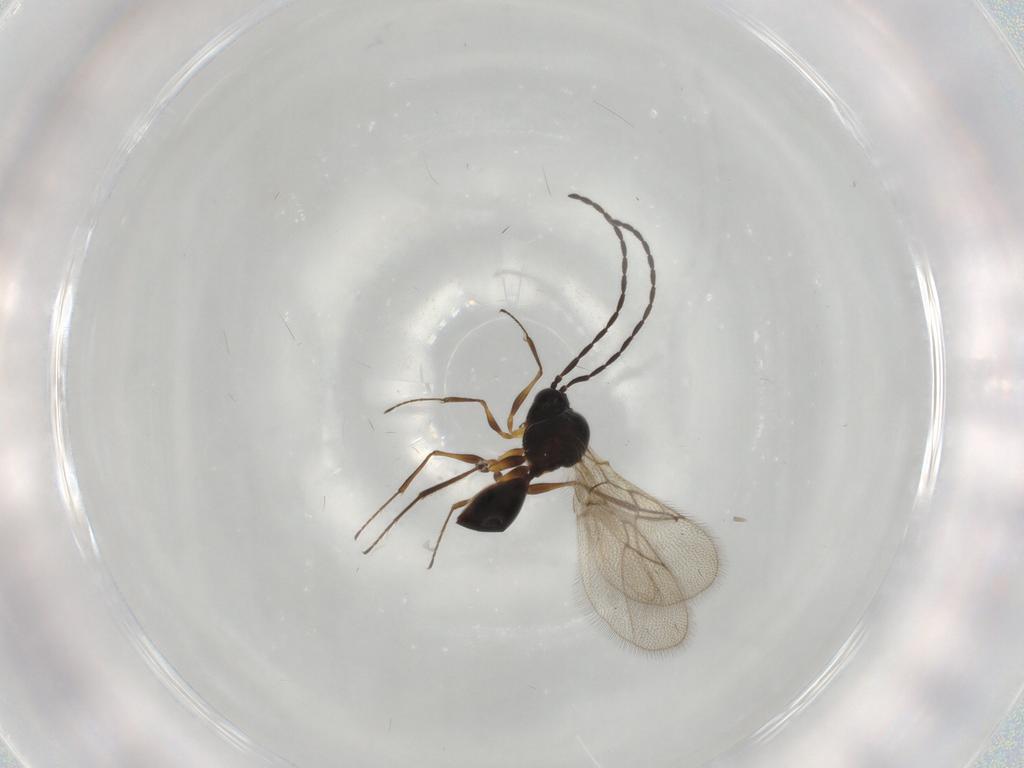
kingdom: Animalia
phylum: Arthropoda
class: Insecta
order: Hymenoptera
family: Figitidae
